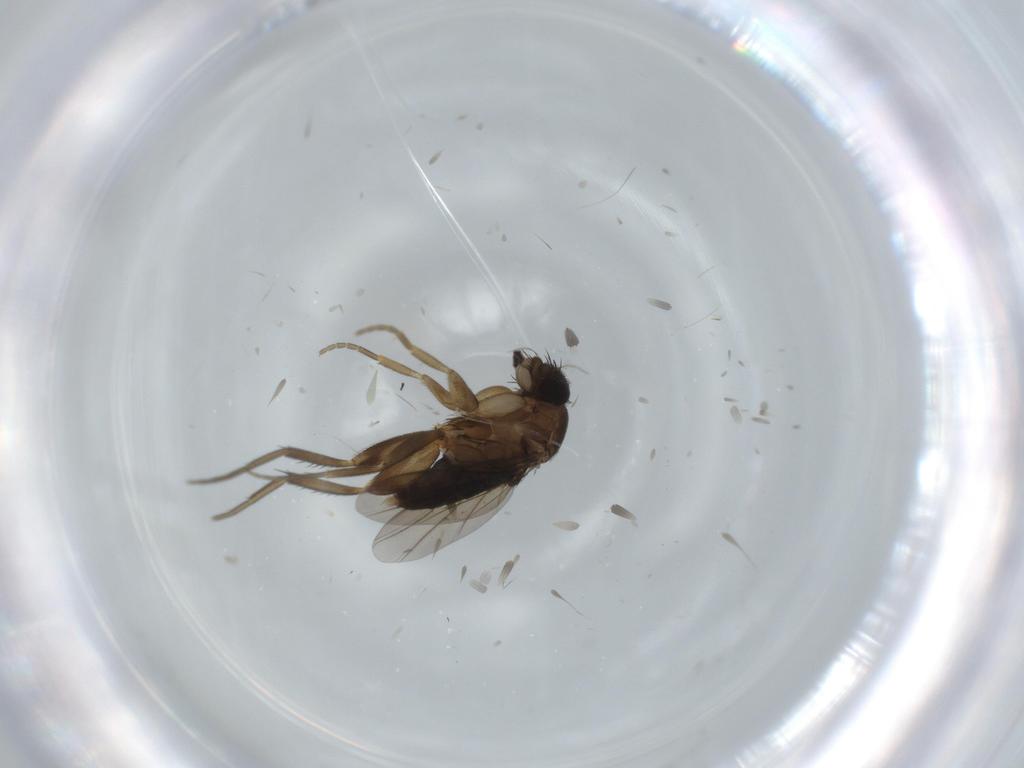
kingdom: Animalia
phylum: Arthropoda
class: Insecta
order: Diptera
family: Phoridae
